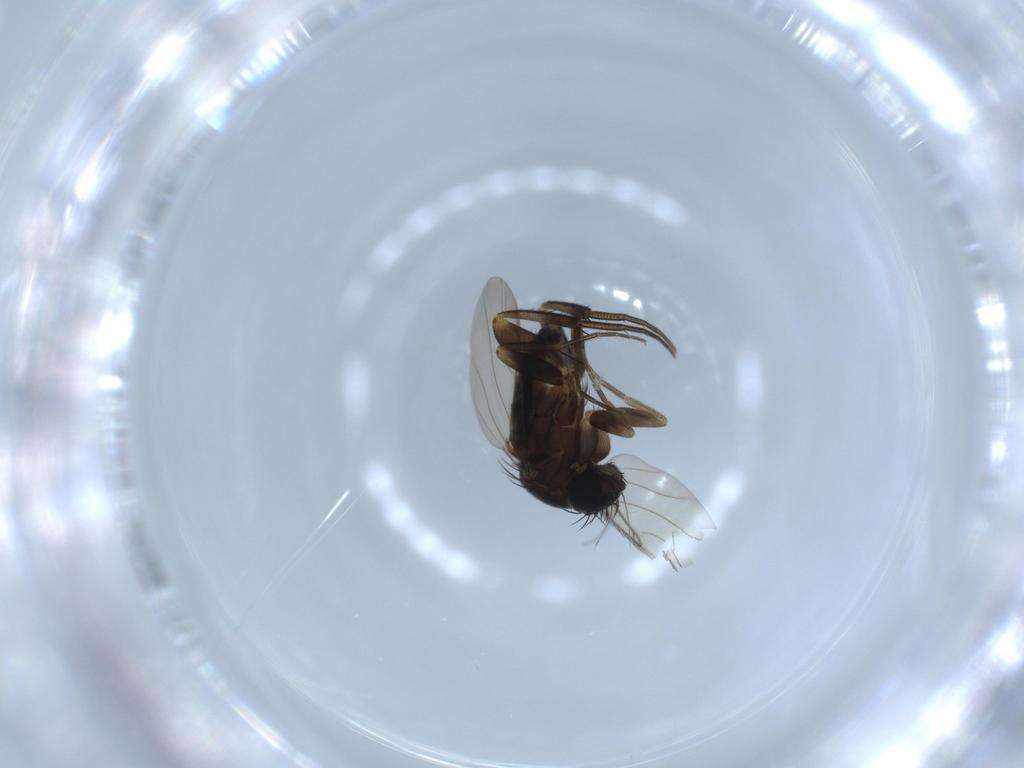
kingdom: Animalia
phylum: Arthropoda
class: Insecta
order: Diptera
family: Phoridae
